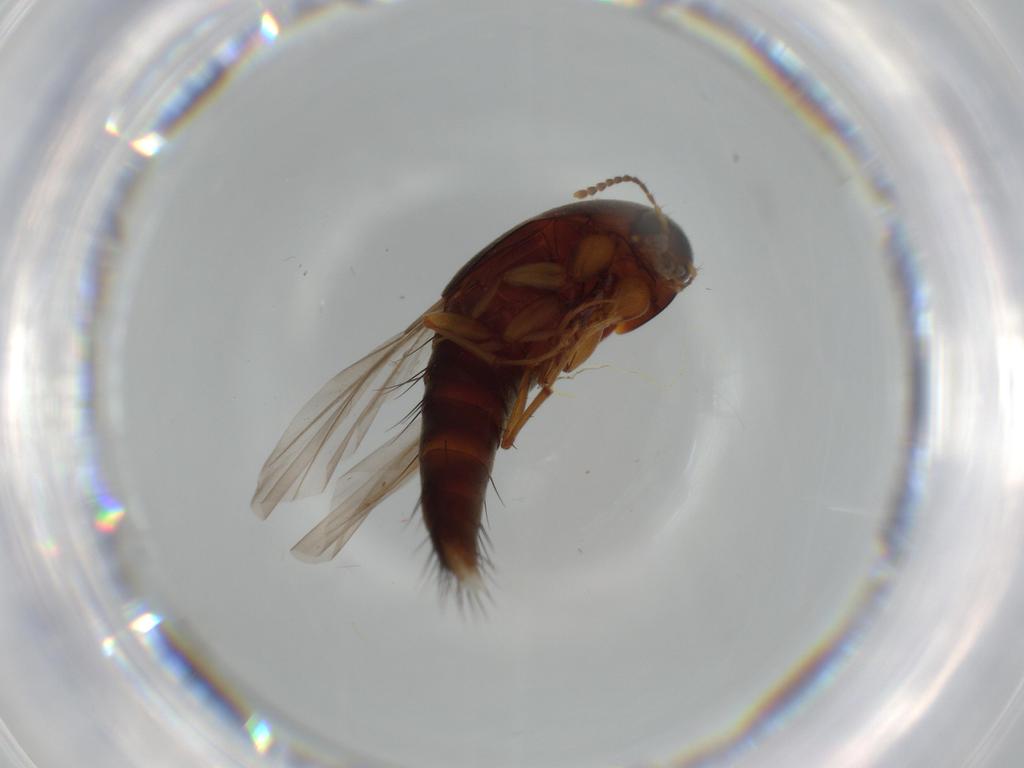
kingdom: Animalia
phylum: Arthropoda
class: Insecta
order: Coleoptera
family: Staphylinidae
